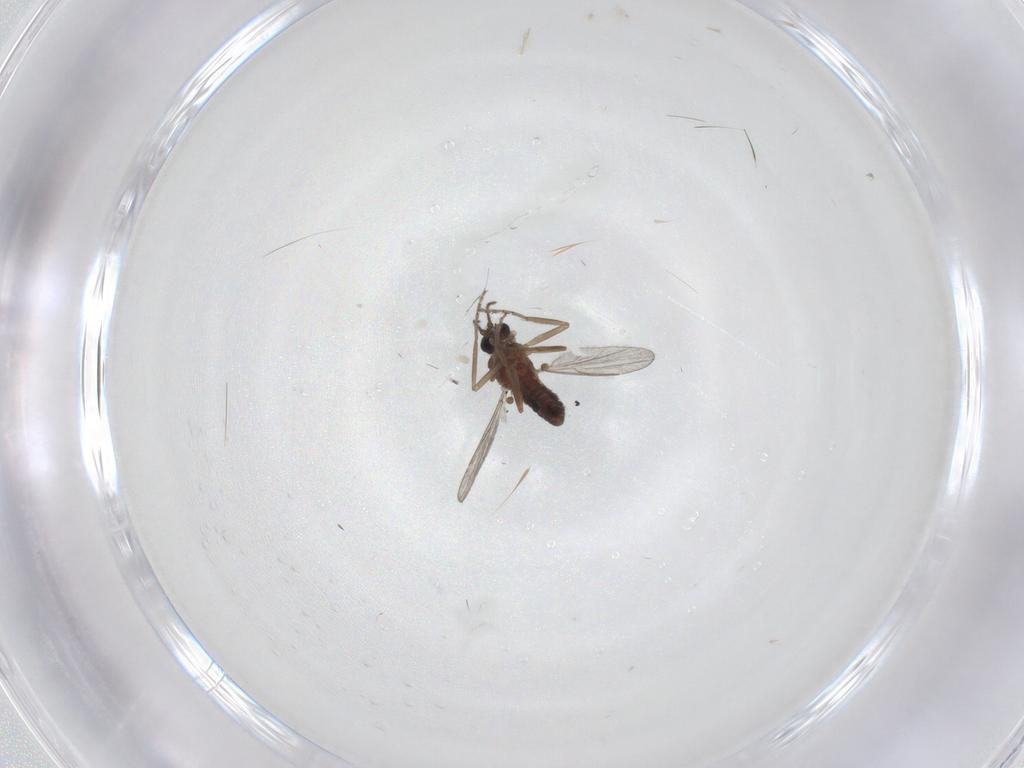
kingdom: Animalia
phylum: Arthropoda
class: Insecta
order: Diptera
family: Ceratopogonidae
